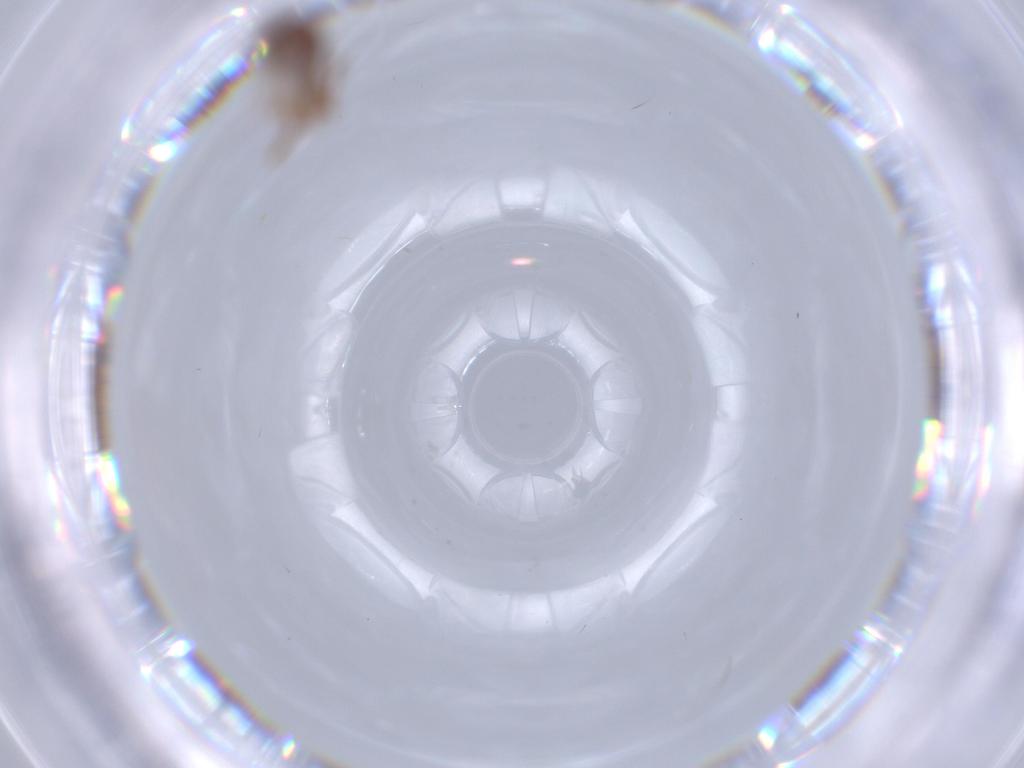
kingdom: Animalia
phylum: Arthropoda
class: Insecta
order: Coleoptera
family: Staphylinidae
